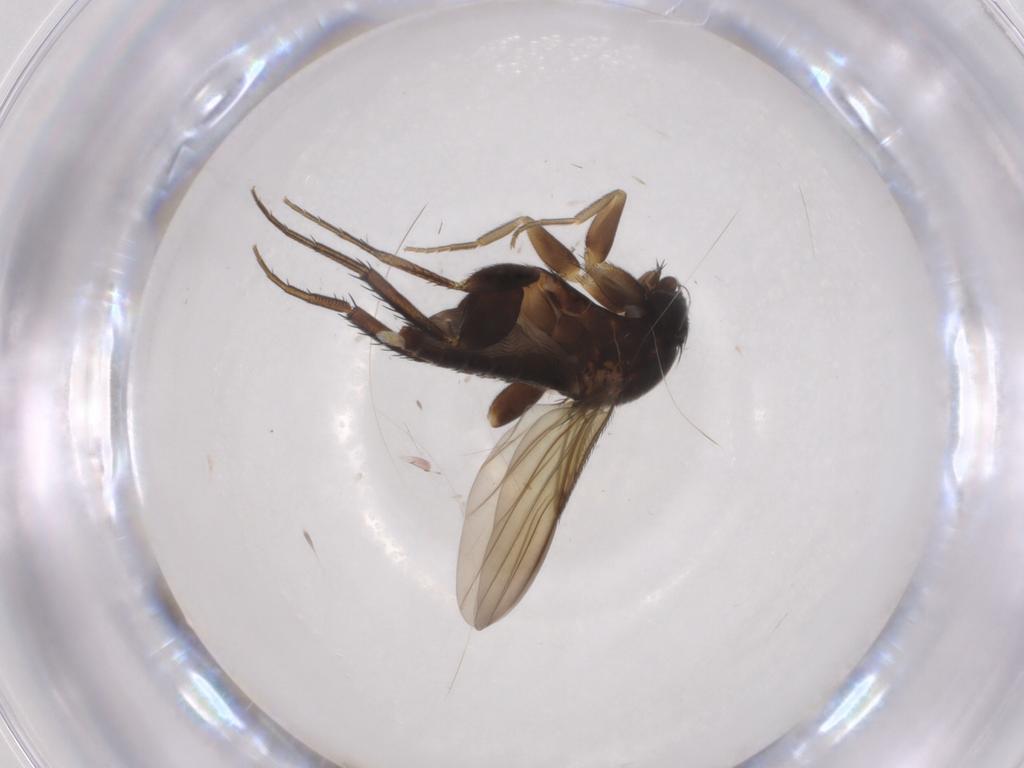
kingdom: Animalia
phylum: Arthropoda
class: Insecta
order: Diptera
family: Phoridae
